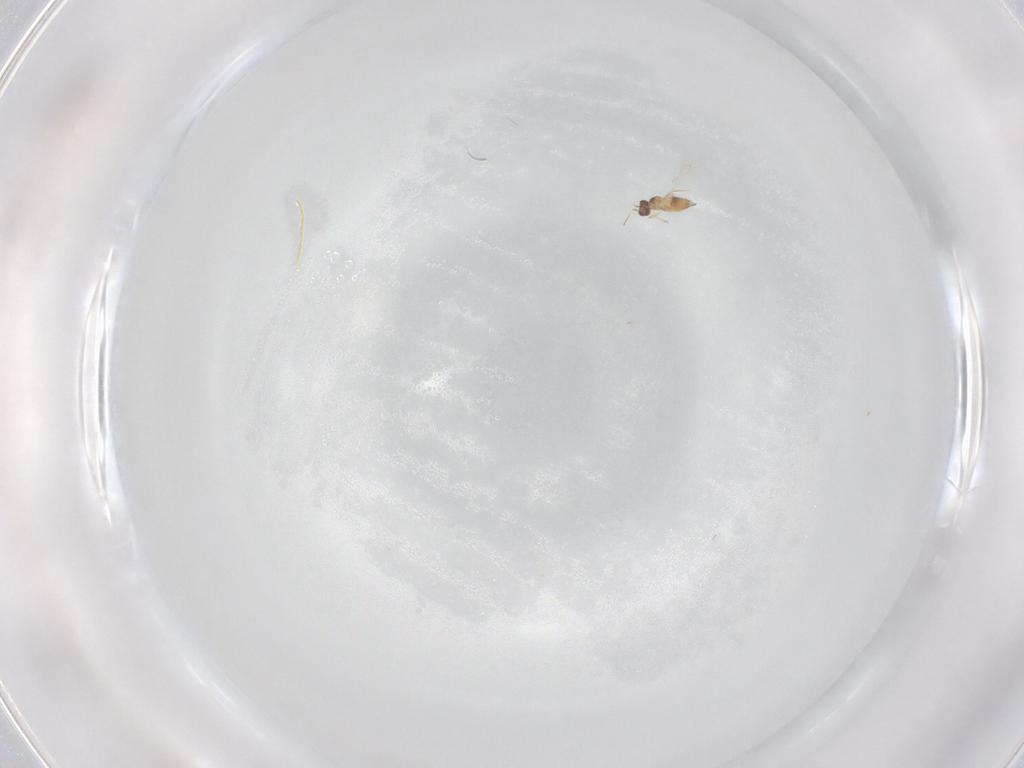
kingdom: Animalia
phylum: Arthropoda
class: Insecta
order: Hymenoptera
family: Mymaridae
